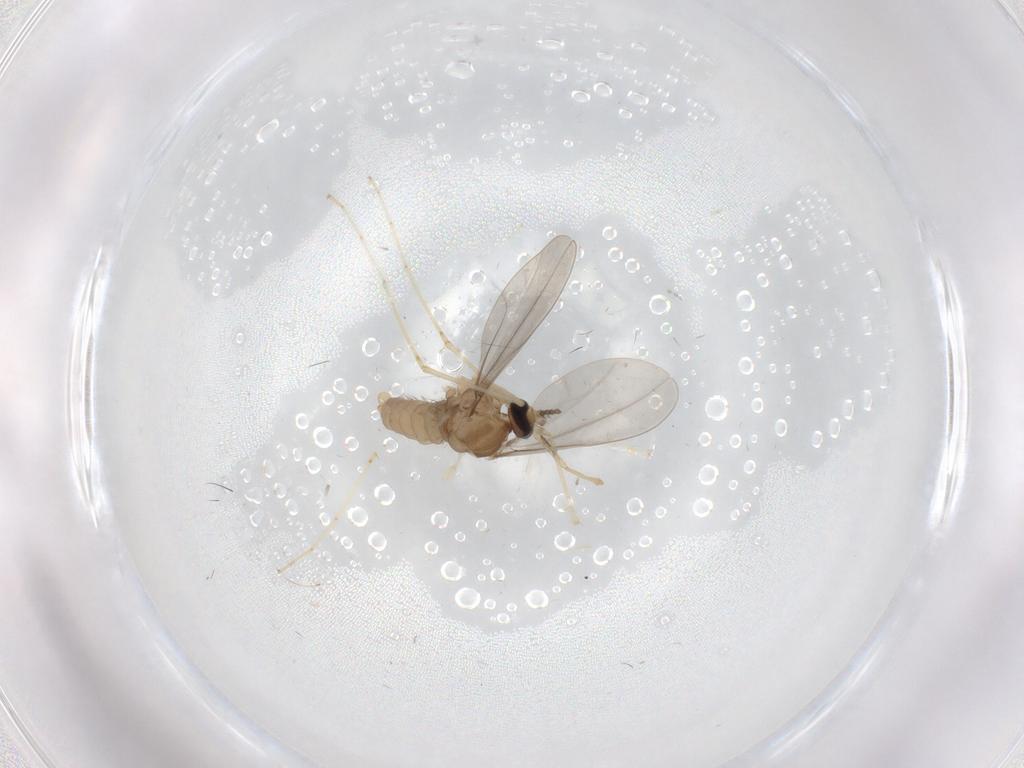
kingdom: Animalia
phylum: Arthropoda
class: Insecta
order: Diptera
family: Cecidomyiidae
